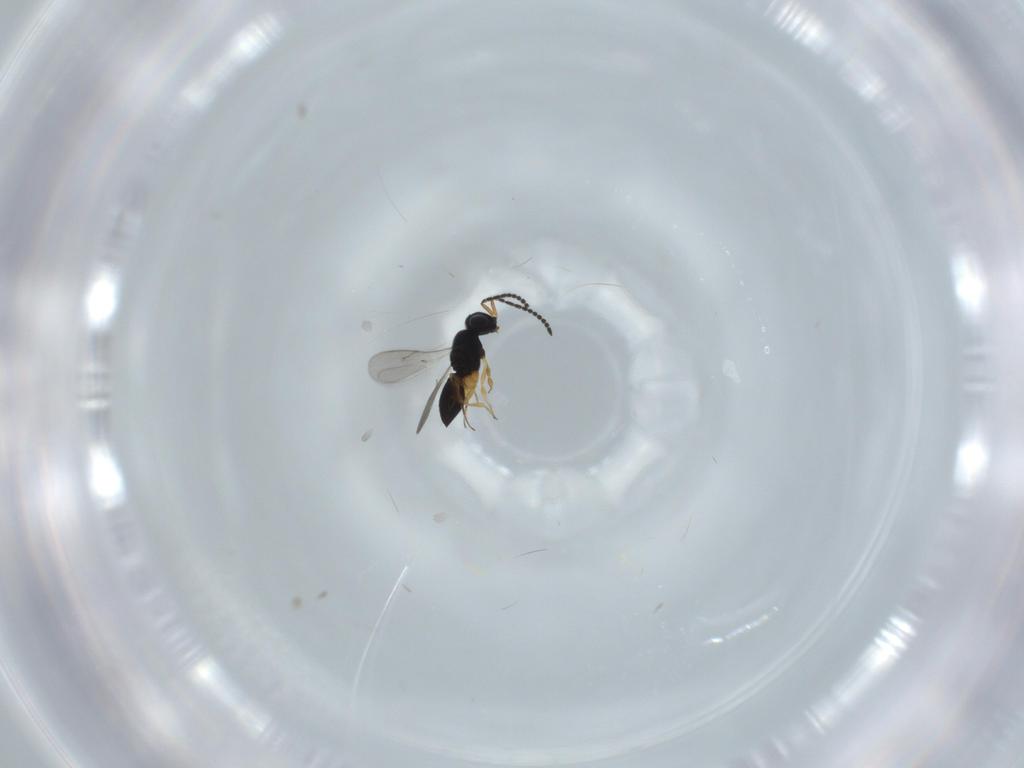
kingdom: Animalia
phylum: Arthropoda
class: Insecta
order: Hymenoptera
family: Scelionidae
